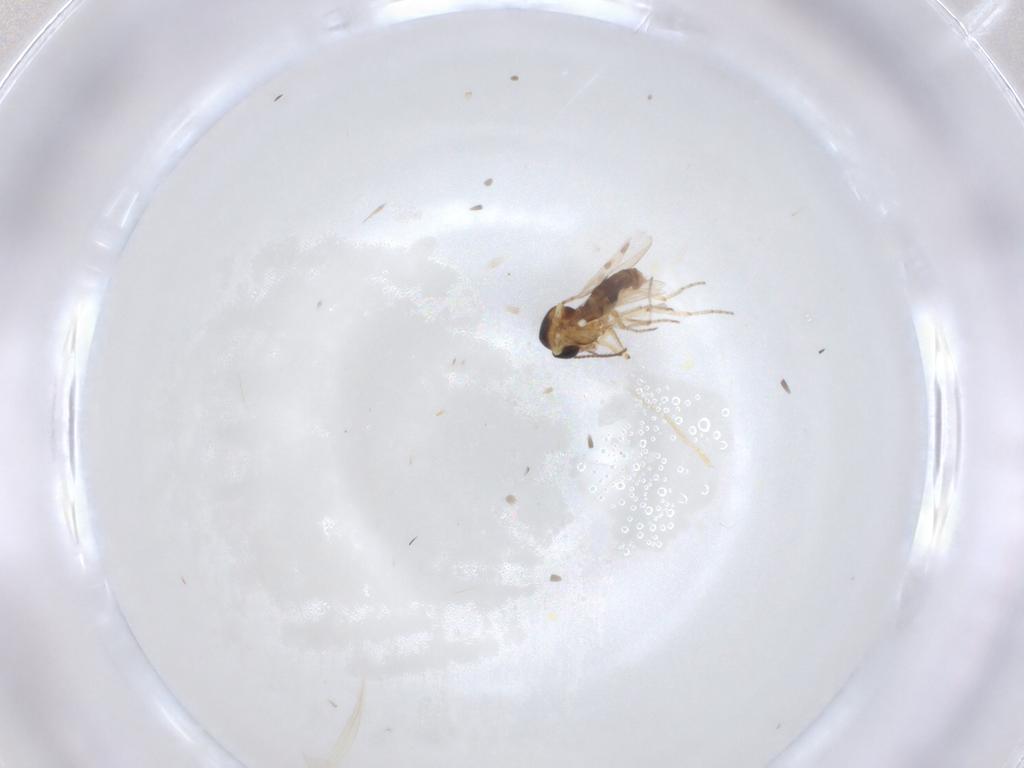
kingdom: Animalia
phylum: Arthropoda
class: Insecta
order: Diptera
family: Ceratopogonidae
